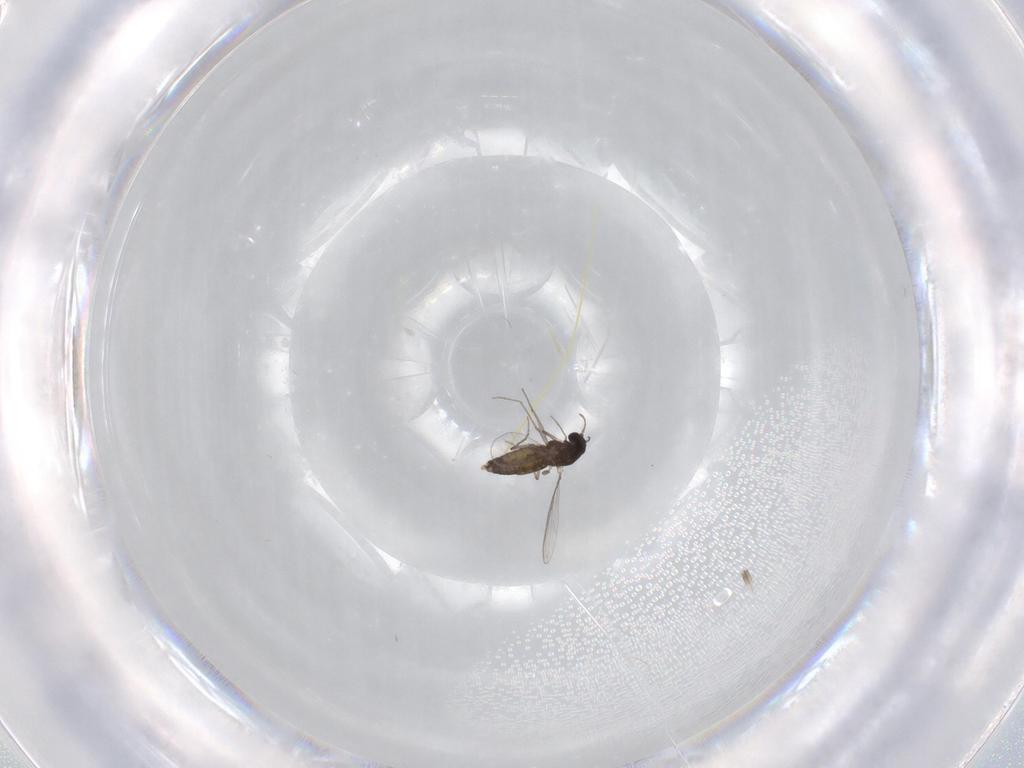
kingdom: Animalia
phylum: Arthropoda
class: Insecta
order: Diptera
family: Chironomidae
